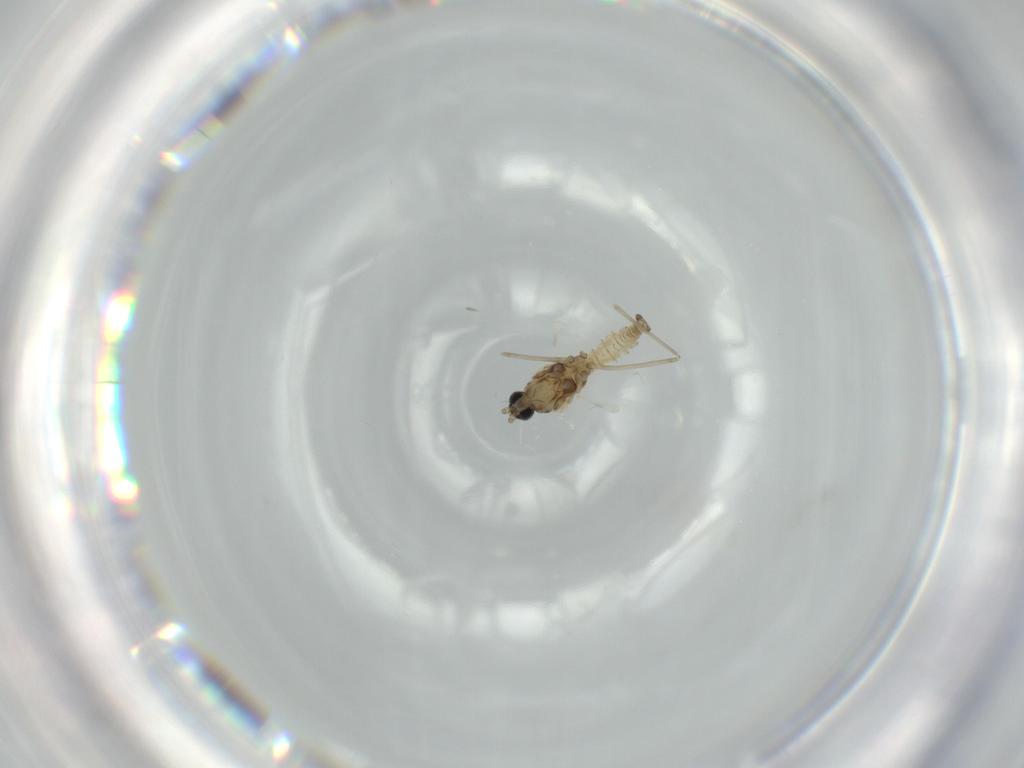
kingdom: Animalia
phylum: Arthropoda
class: Insecta
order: Diptera
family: Cecidomyiidae
